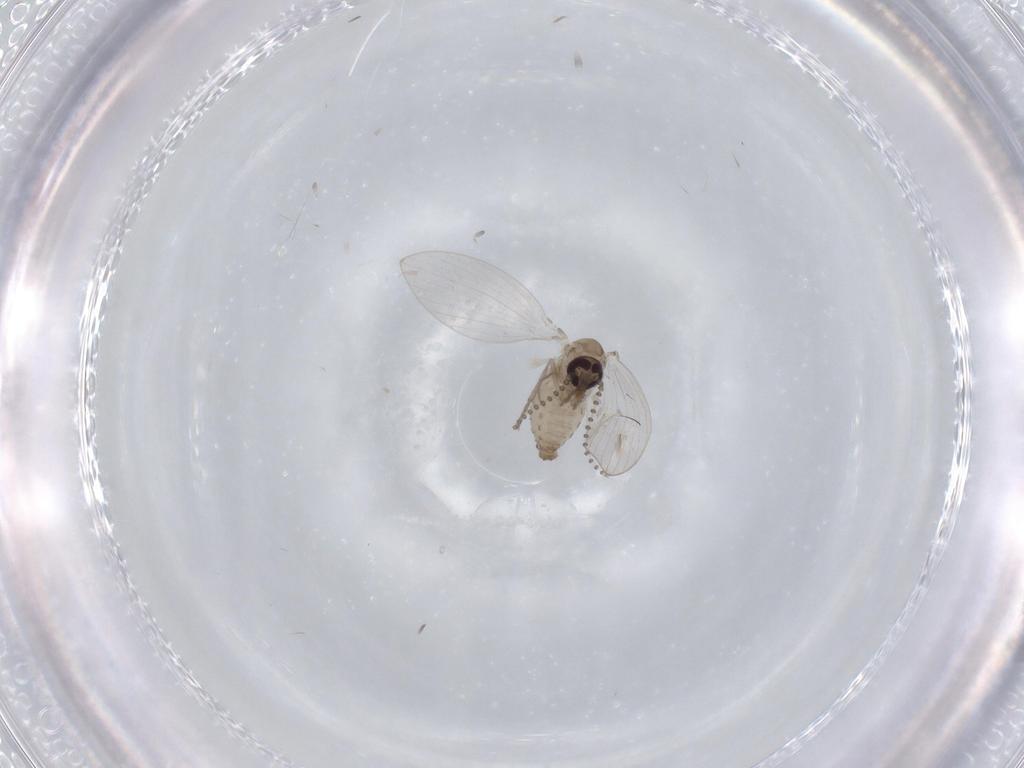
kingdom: Animalia
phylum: Arthropoda
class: Insecta
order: Diptera
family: Psychodidae
